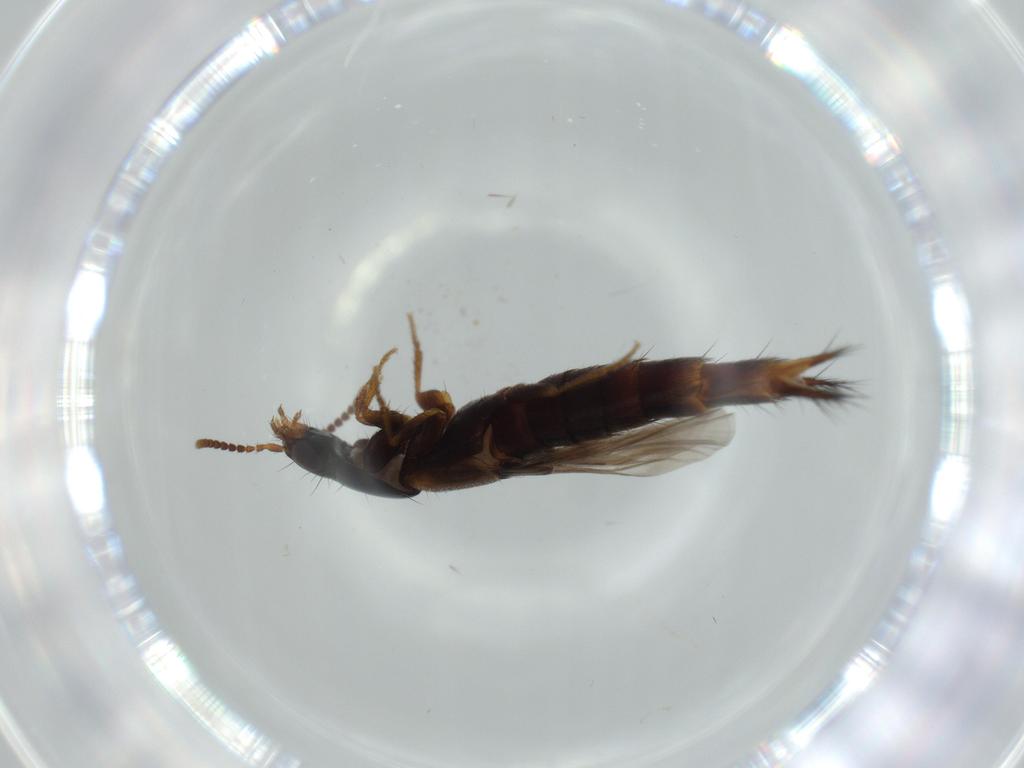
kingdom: Animalia
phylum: Arthropoda
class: Insecta
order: Coleoptera
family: Staphylinidae
